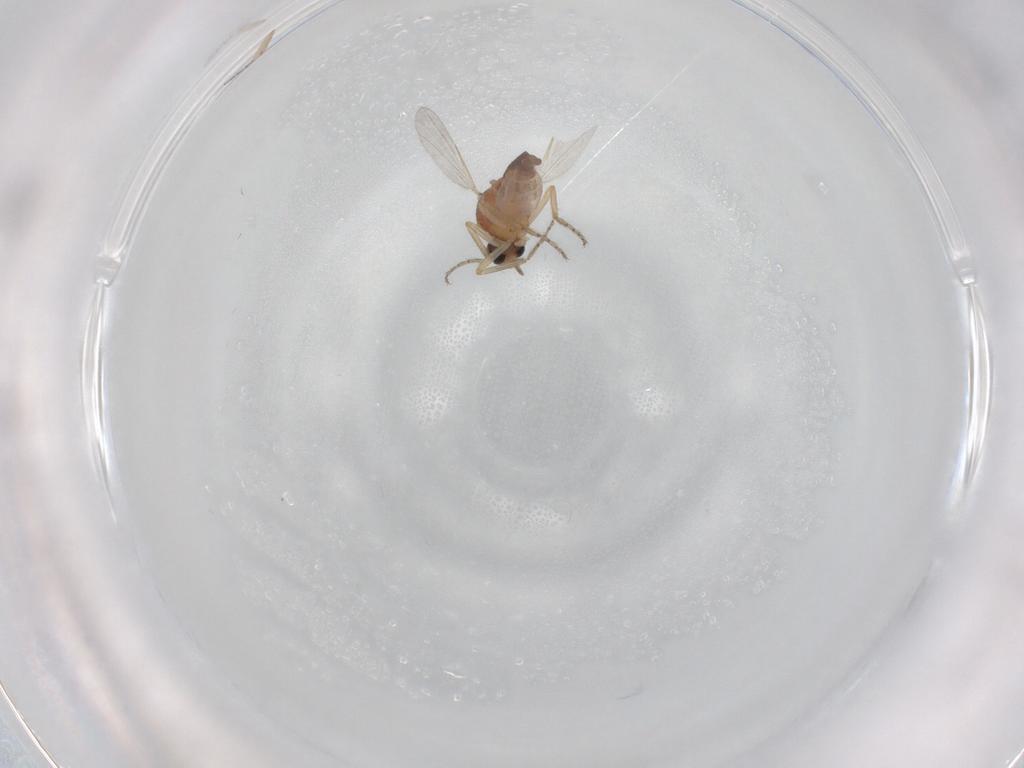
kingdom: Animalia
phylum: Arthropoda
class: Insecta
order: Diptera
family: Ceratopogonidae
